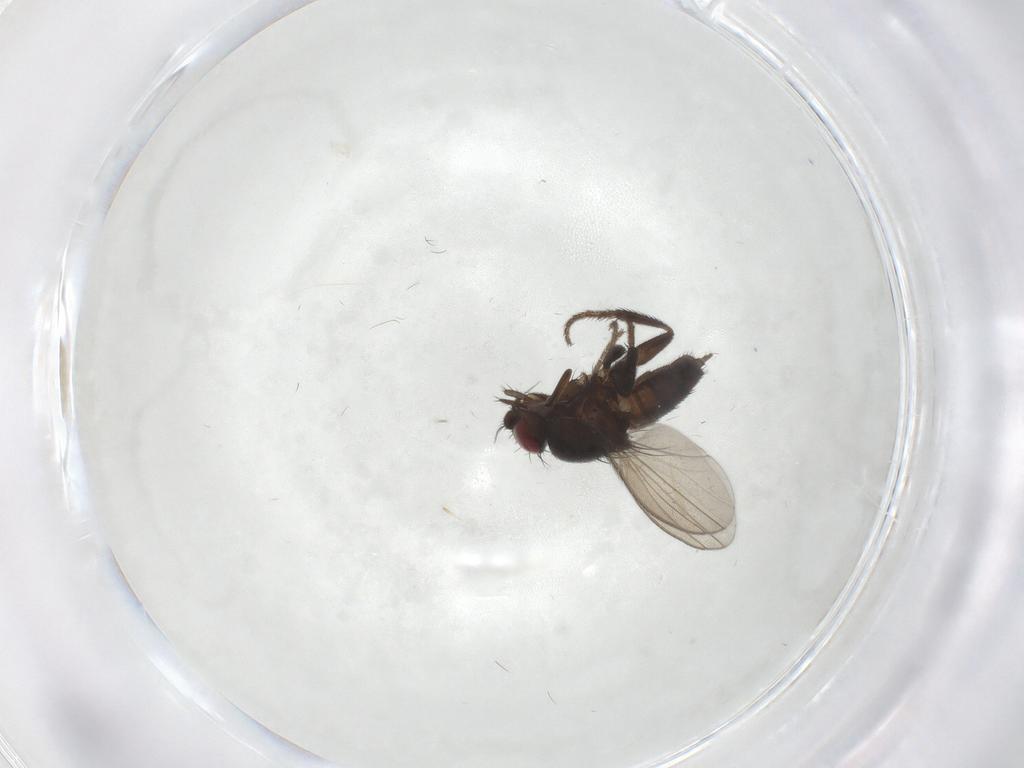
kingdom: Animalia
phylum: Arthropoda
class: Insecta
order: Diptera
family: Milichiidae
